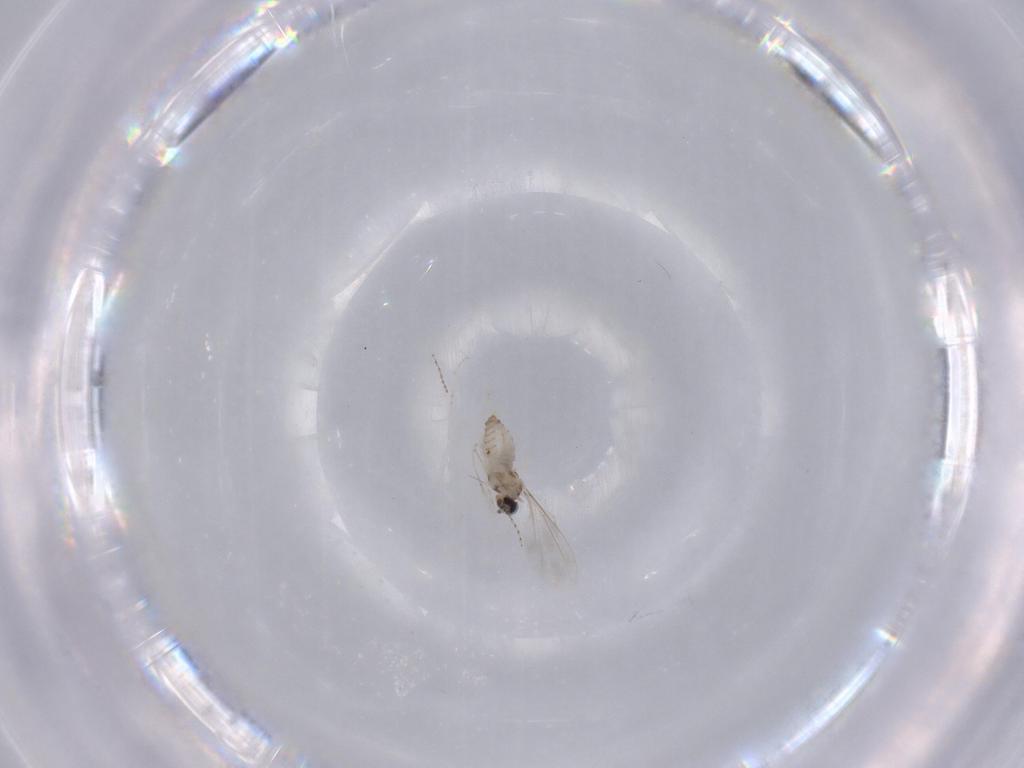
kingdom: Animalia
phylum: Arthropoda
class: Insecta
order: Diptera
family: Cecidomyiidae
